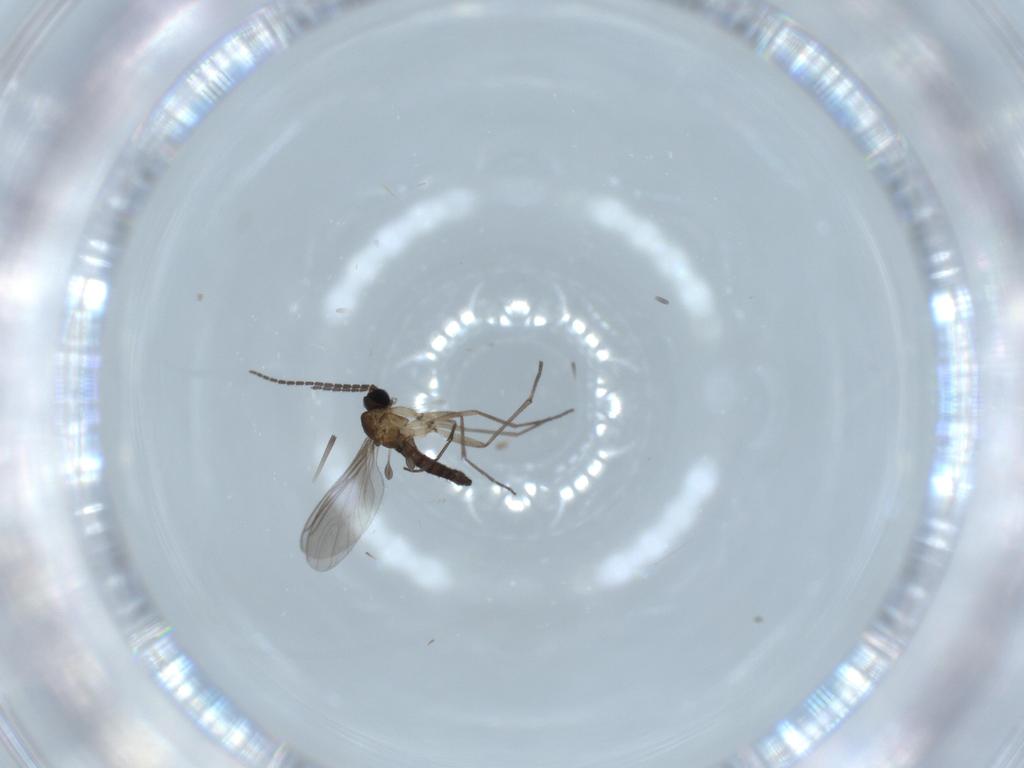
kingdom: Animalia
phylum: Arthropoda
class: Insecta
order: Diptera
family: Sciaridae
